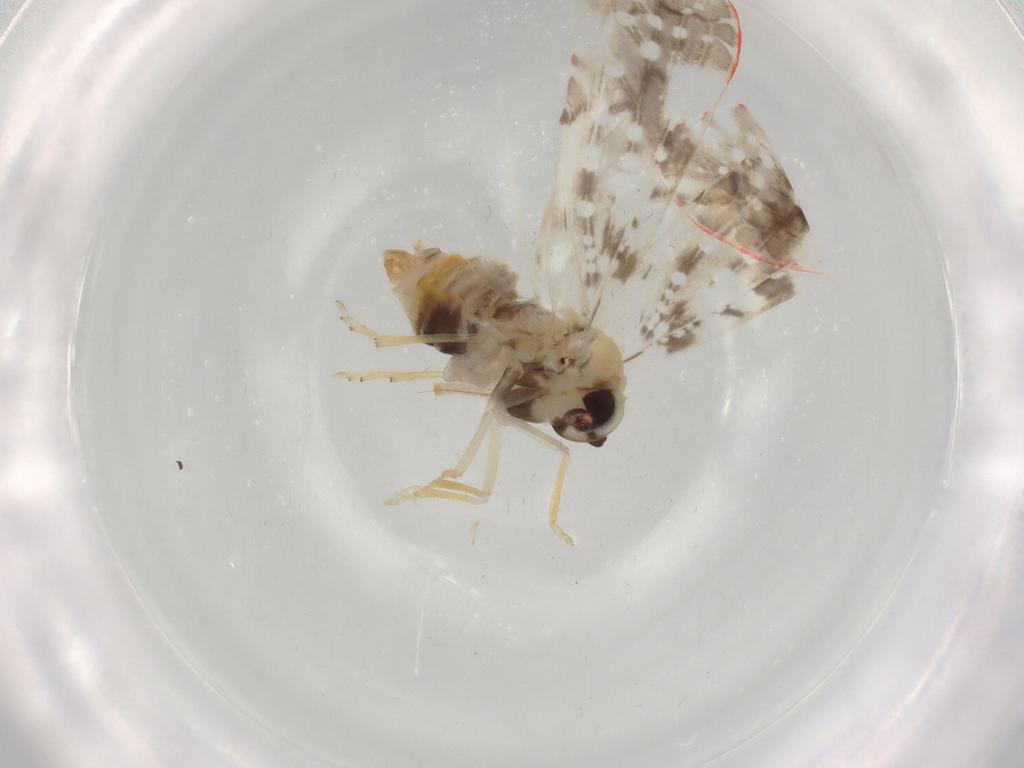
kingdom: Animalia
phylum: Arthropoda
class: Insecta
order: Hemiptera
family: Derbidae
